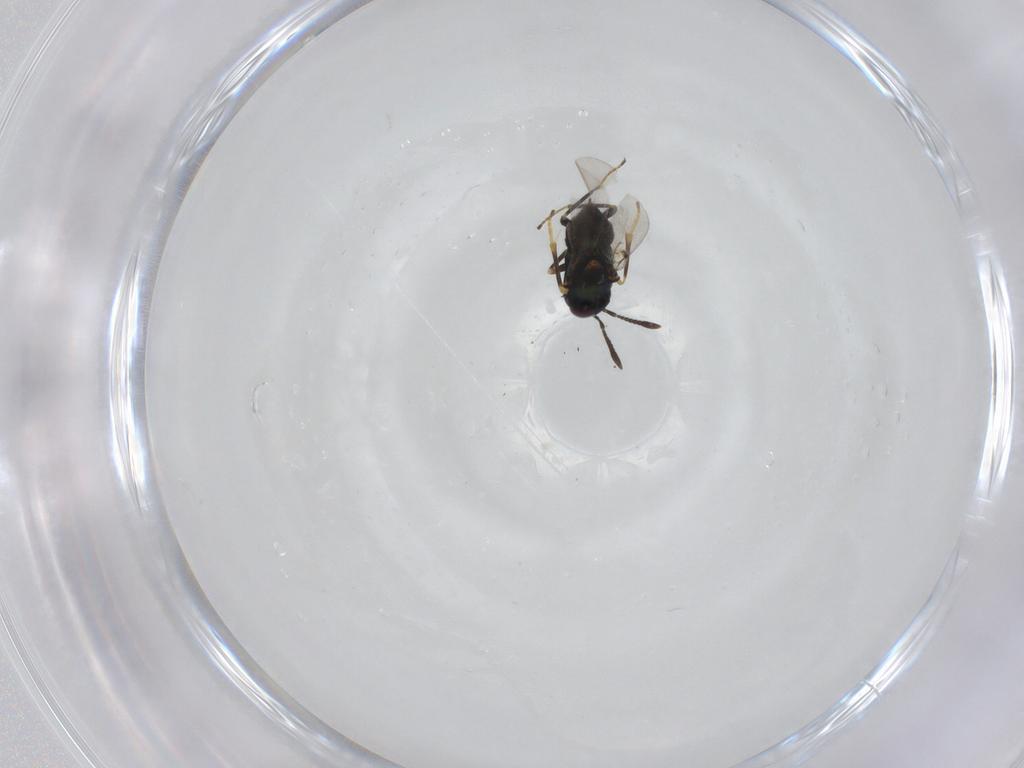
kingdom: Animalia
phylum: Arthropoda
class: Insecta
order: Hymenoptera
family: Encyrtidae
